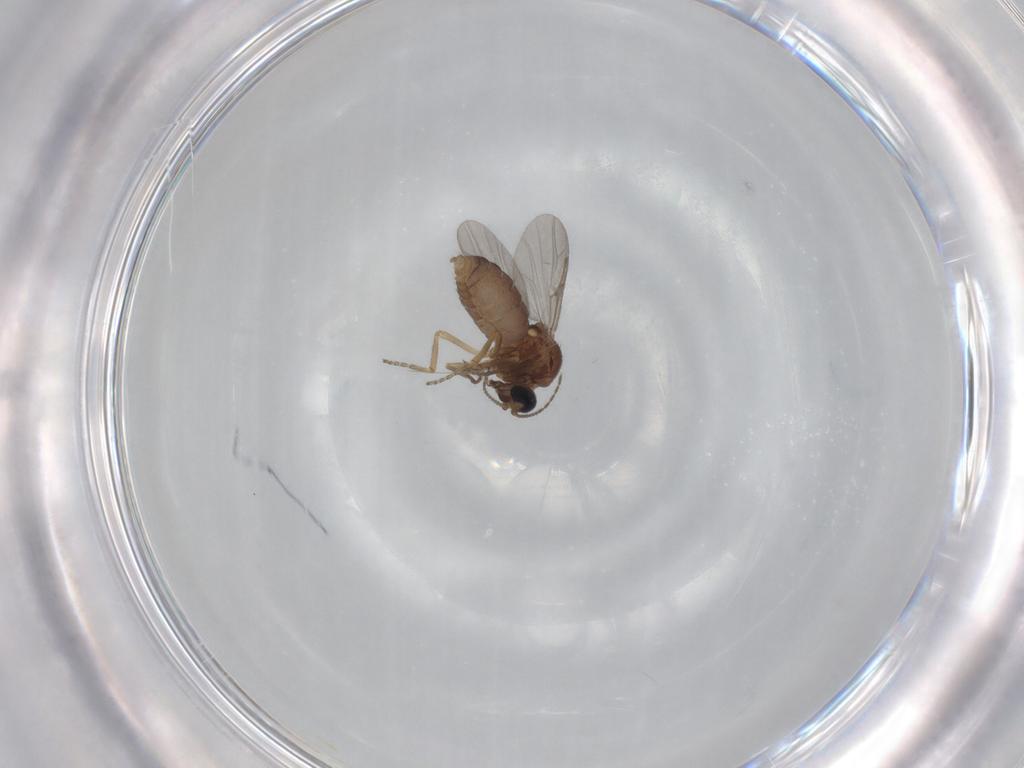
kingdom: Animalia
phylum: Arthropoda
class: Insecta
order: Diptera
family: Ceratopogonidae
